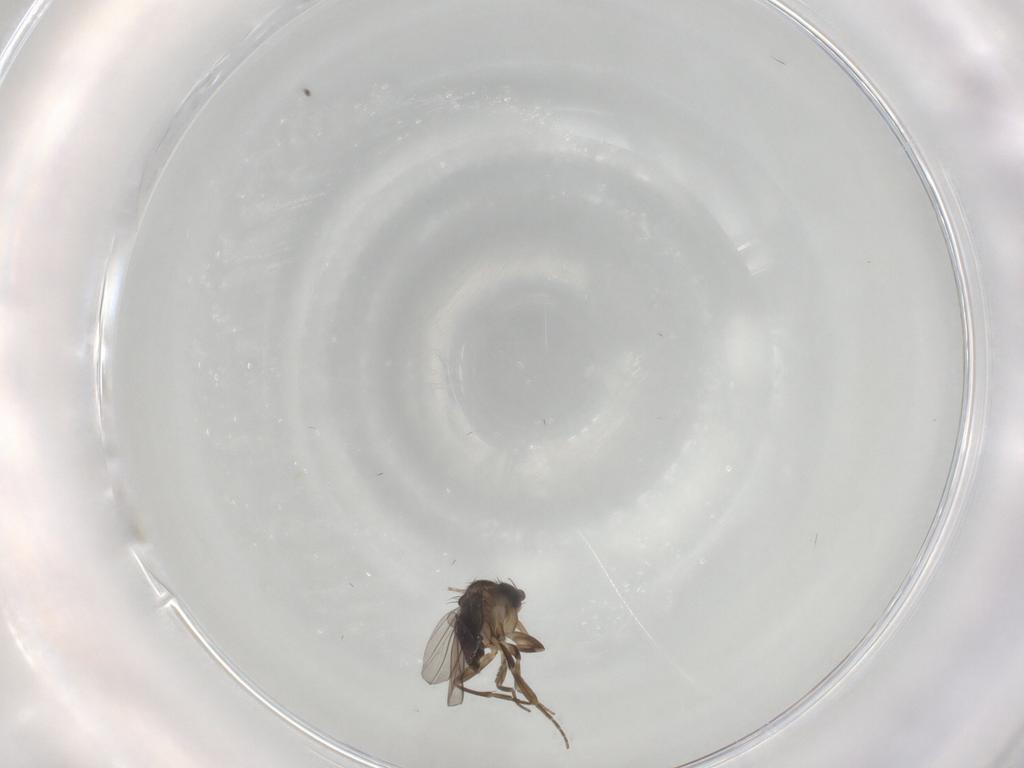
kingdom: Animalia
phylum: Arthropoda
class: Insecta
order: Diptera
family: Phoridae
